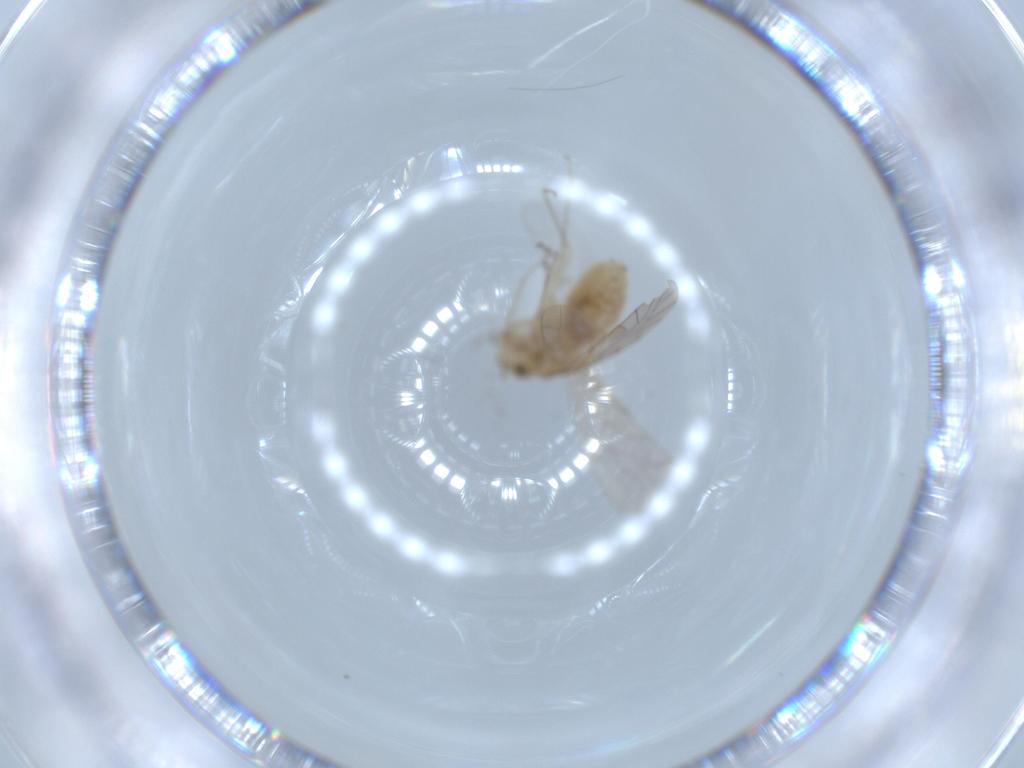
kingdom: Animalia
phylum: Arthropoda
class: Insecta
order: Psocodea
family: Lachesillidae
